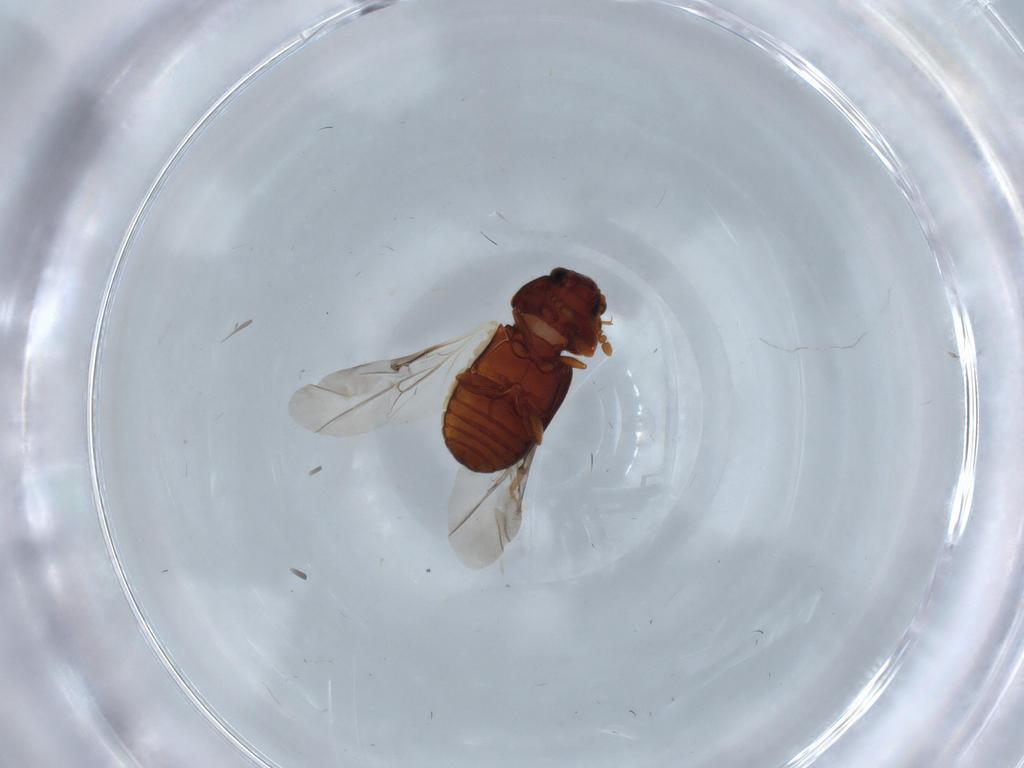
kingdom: Animalia
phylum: Arthropoda
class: Insecta
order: Coleoptera
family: Sphindidae
